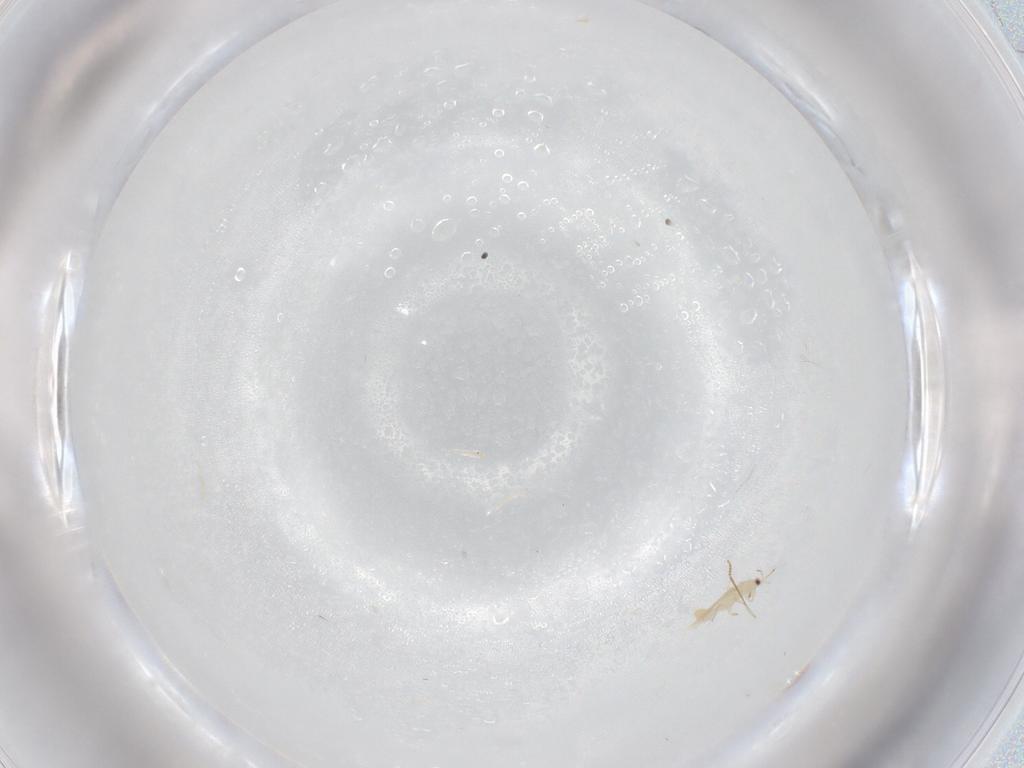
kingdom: Animalia
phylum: Arthropoda
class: Insecta
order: Thysanoptera
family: Thripidae
